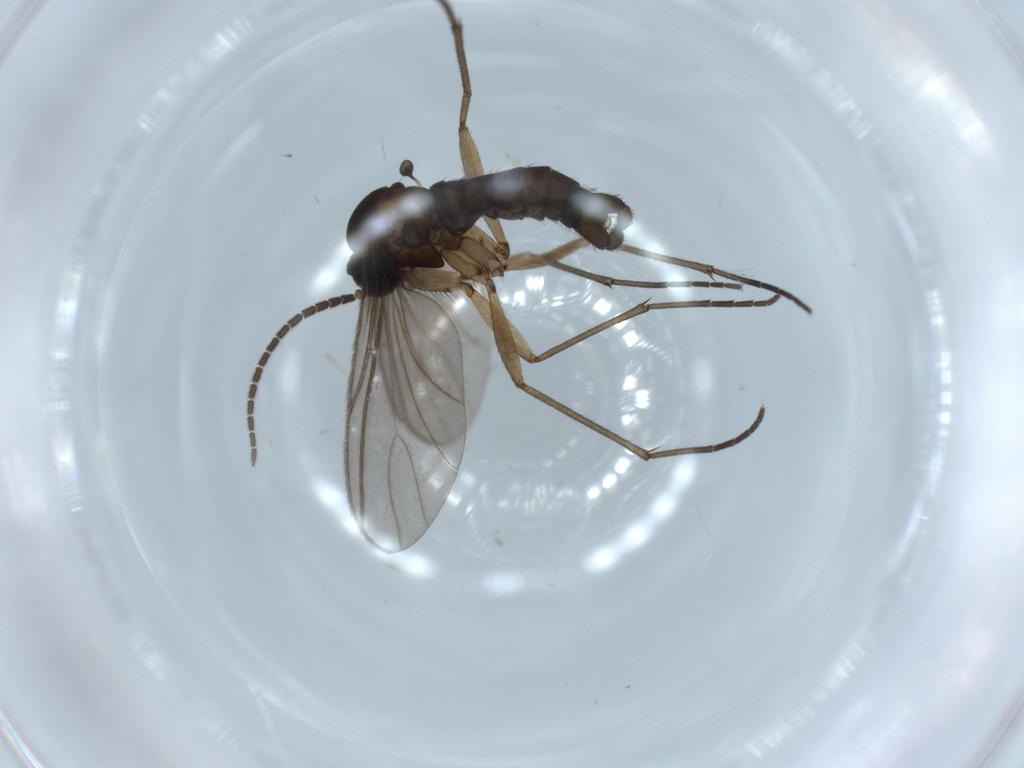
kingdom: Animalia
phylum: Arthropoda
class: Insecta
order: Diptera
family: Sciaridae
